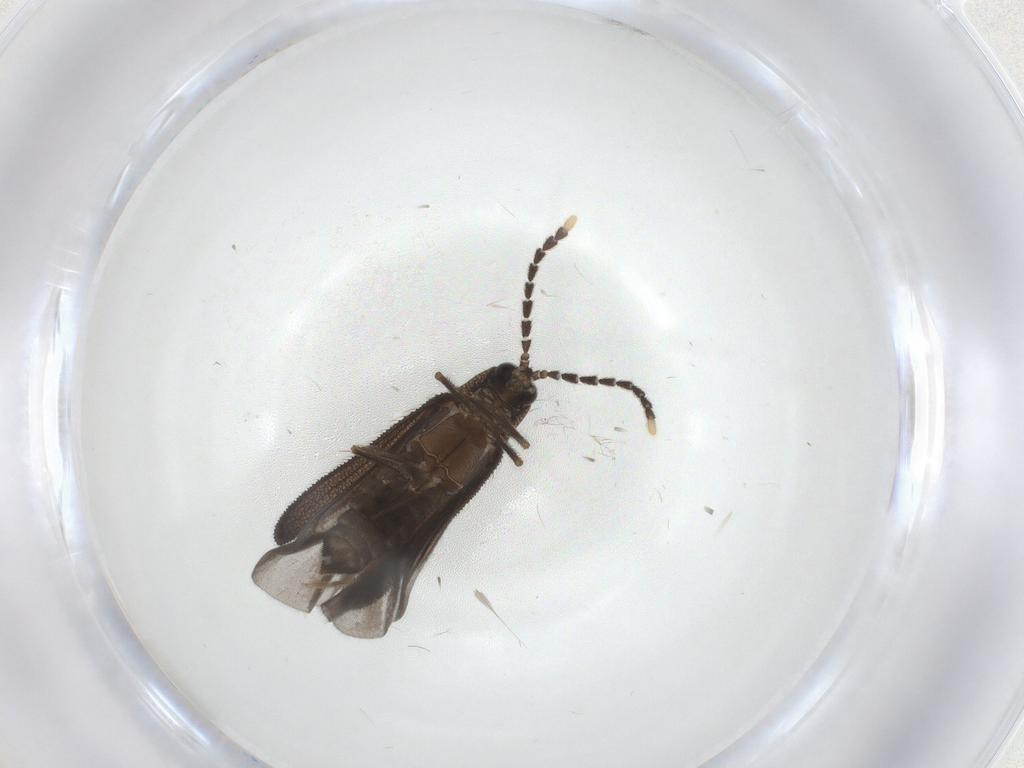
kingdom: Animalia
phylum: Arthropoda
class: Insecta
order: Coleoptera
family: Lycidae
